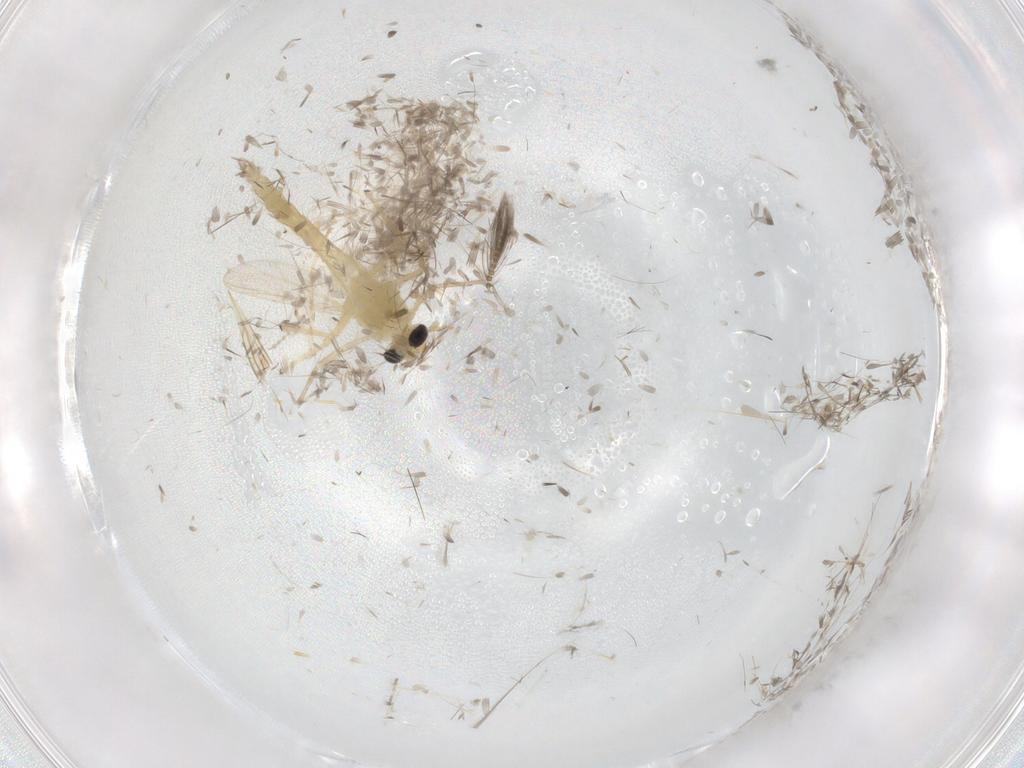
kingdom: Animalia
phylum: Arthropoda
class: Insecta
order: Diptera
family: Chironomidae
